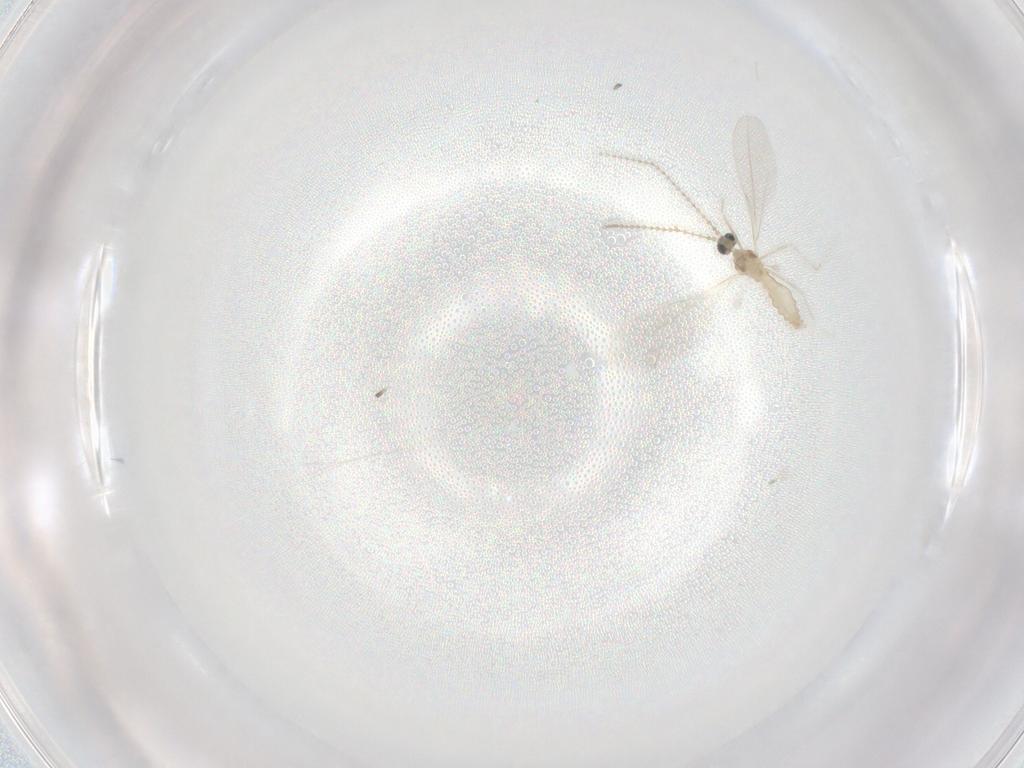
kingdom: Animalia
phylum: Arthropoda
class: Insecta
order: Diptera
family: Cecidomyiidae
